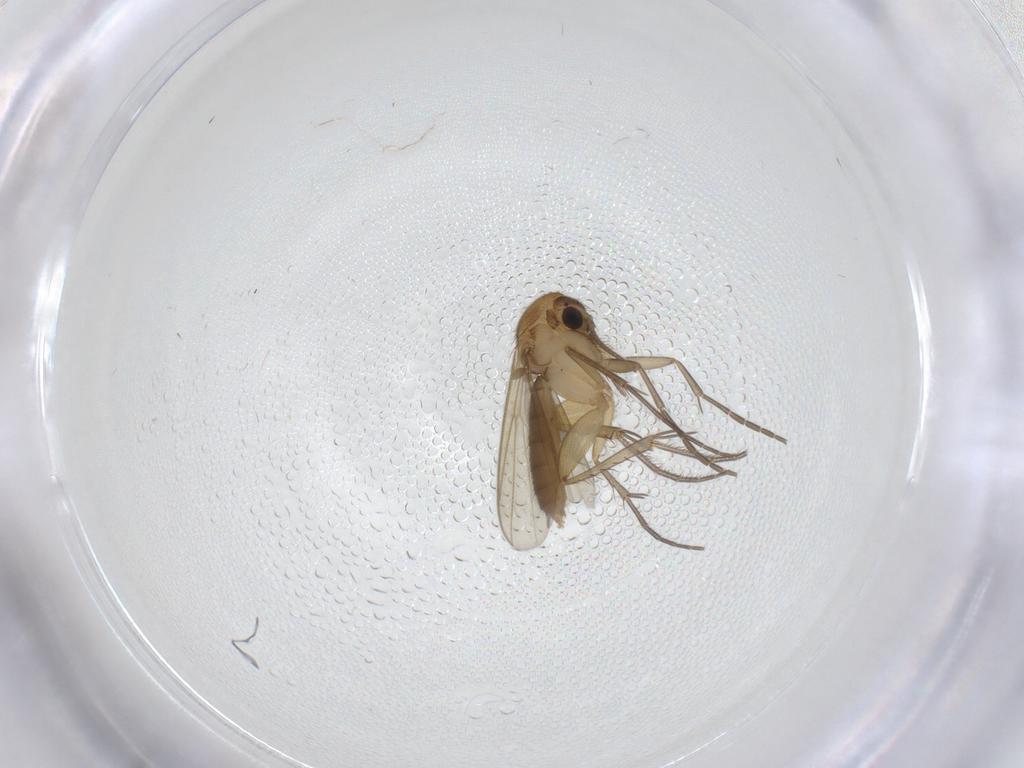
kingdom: Animalia
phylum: Arthropoda
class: Insecta
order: Diptera
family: Mycetophilidae
